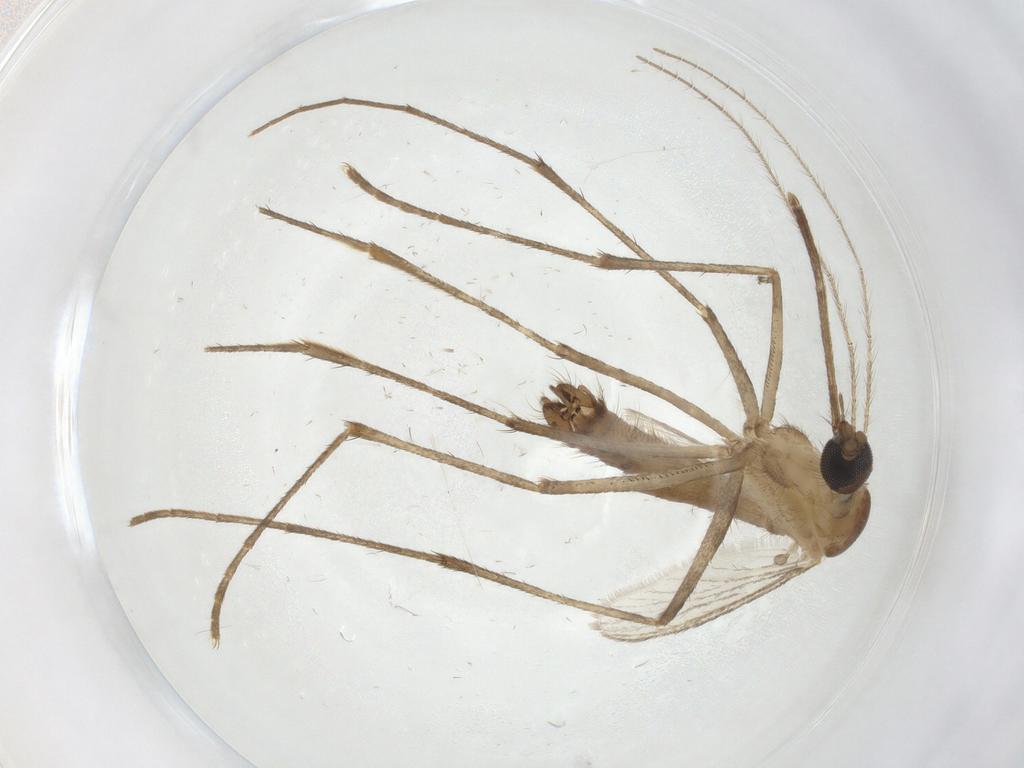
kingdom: Animalia
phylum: Arthropoda
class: Insecta
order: Diptera
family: Culicidae
